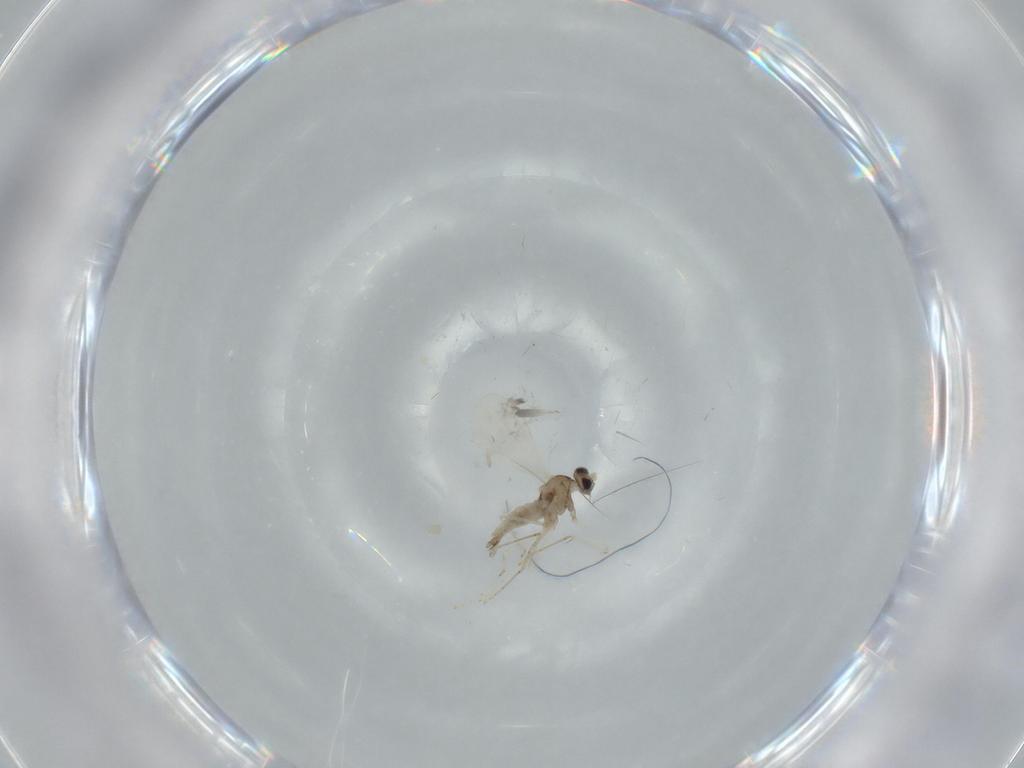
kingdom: Animalia
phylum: Arthropoda
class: Insecta
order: Diptera
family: Cecidomyiidae
